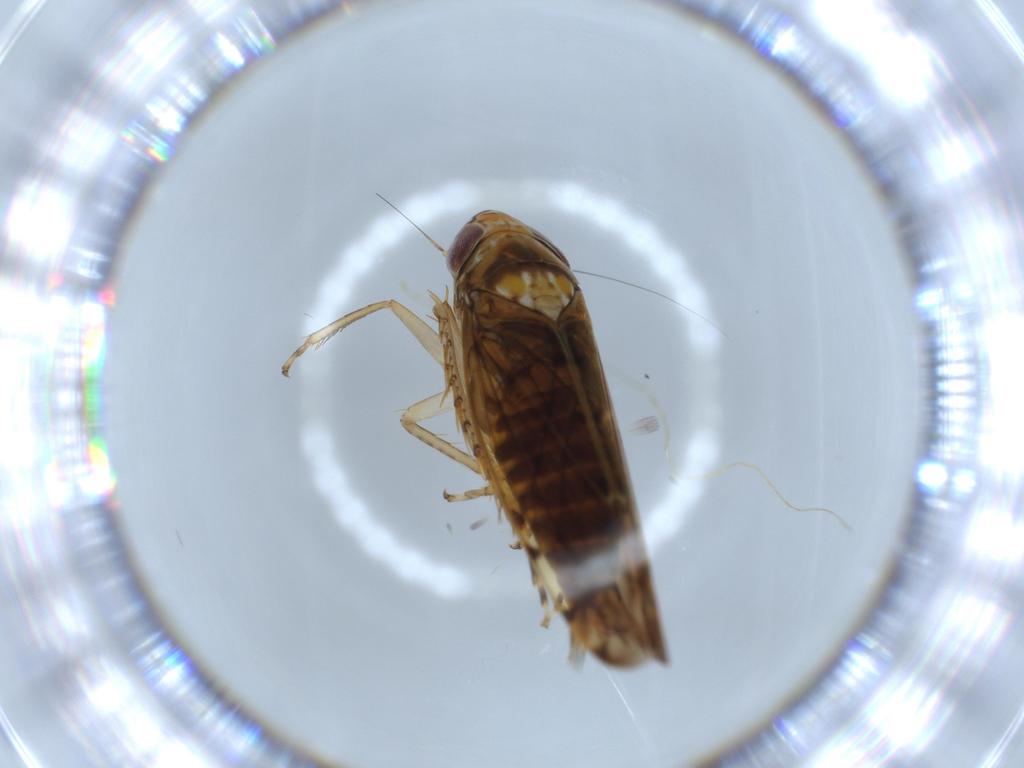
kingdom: Animalia
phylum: Arthropoda
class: Insecta
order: Hemiptera
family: Cicadellidae
